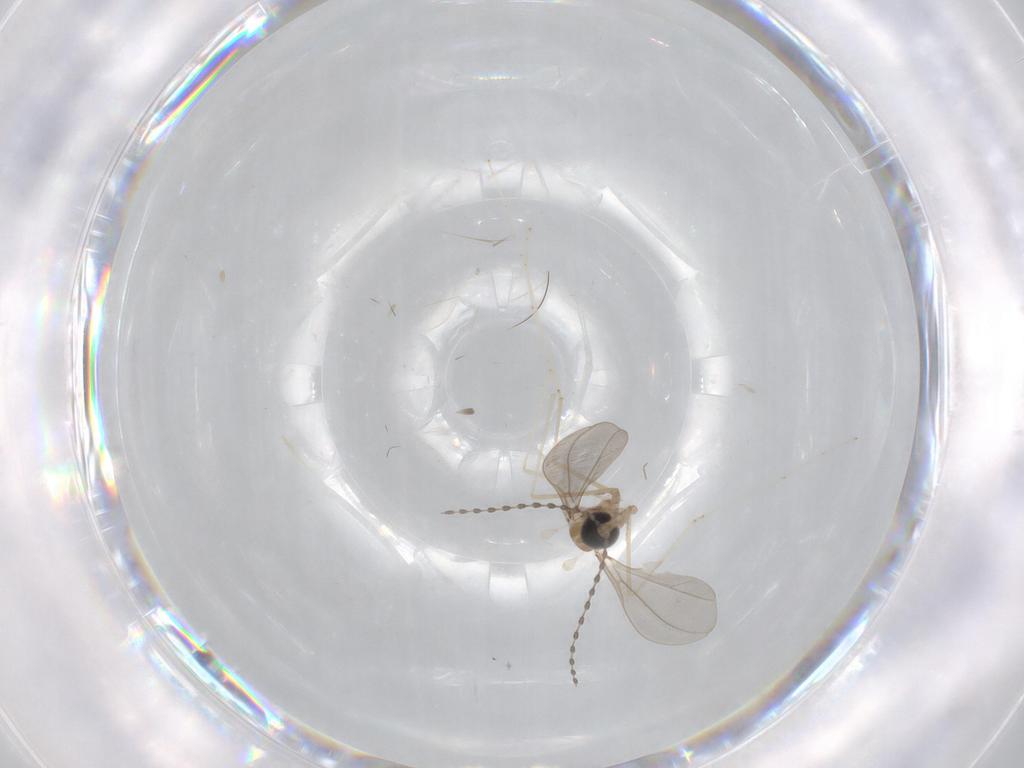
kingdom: Animalia
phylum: Arthropoda
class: Insecta
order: Diptera
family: Cecidomyiidae
